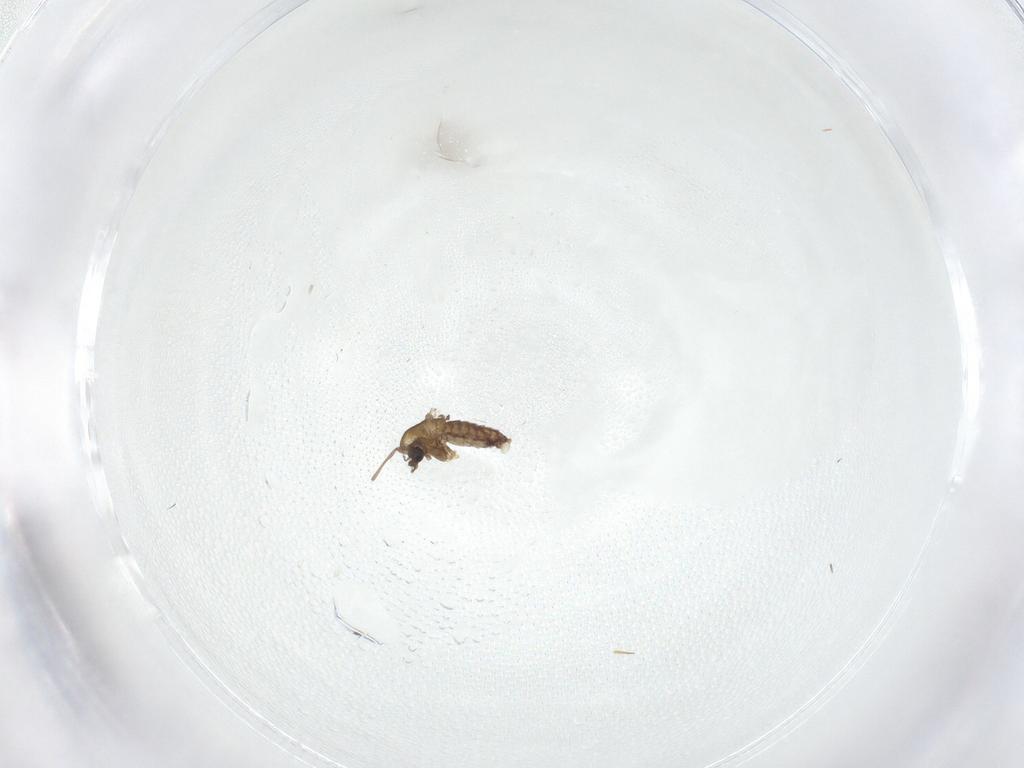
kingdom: Animalia
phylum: Arthropoda
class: Insecta
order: Diptera
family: Chironomidae
